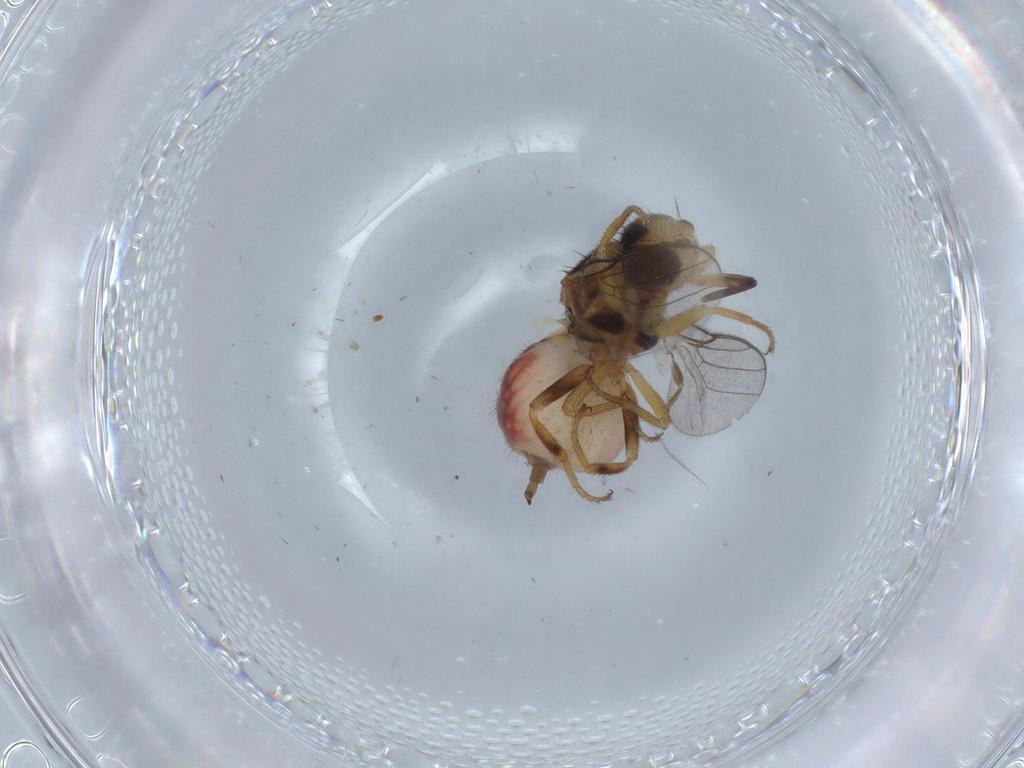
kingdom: Animalia
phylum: Arthropoda
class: Insecta
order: Diptera
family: Chloropidae
